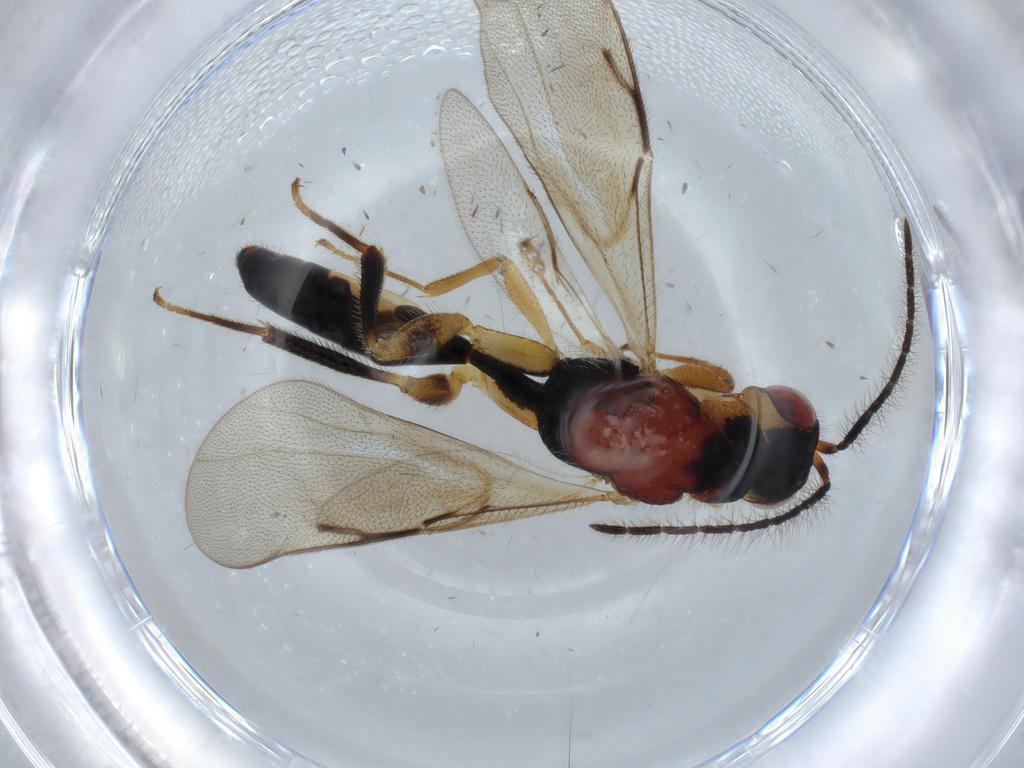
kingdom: Animalia
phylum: Arthropoda
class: Insecta
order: Hymenoptera
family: Eurytomidae
